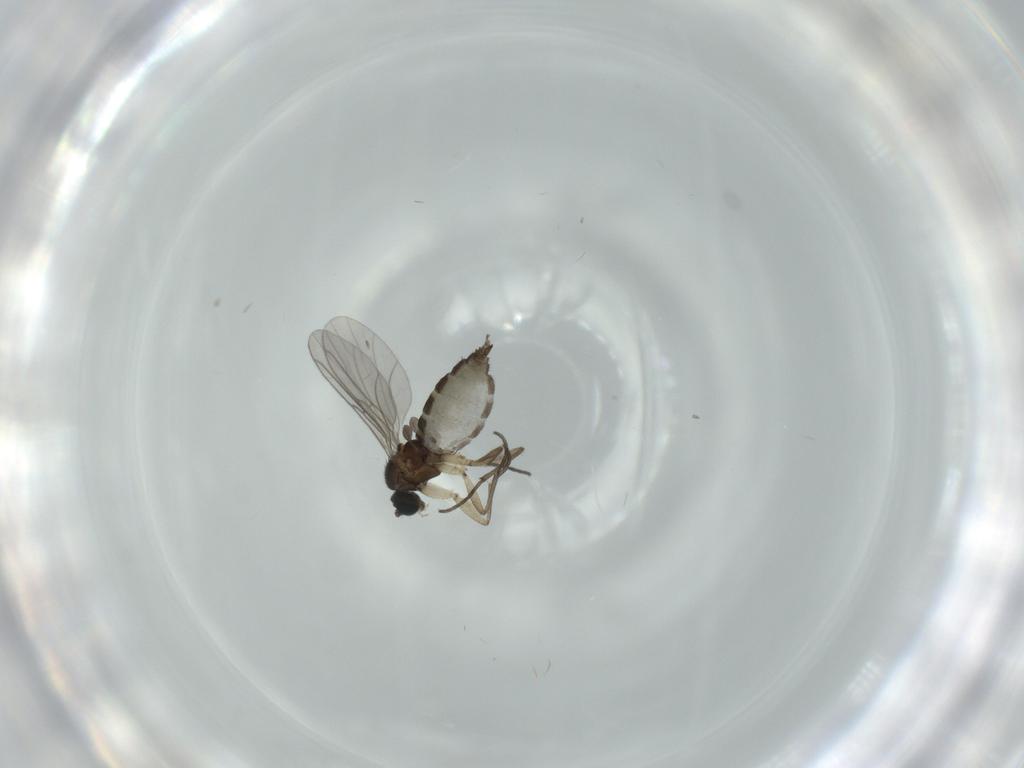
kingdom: Animalia
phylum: Arthropoda
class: Insecta
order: Diptera
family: Sciaridae
